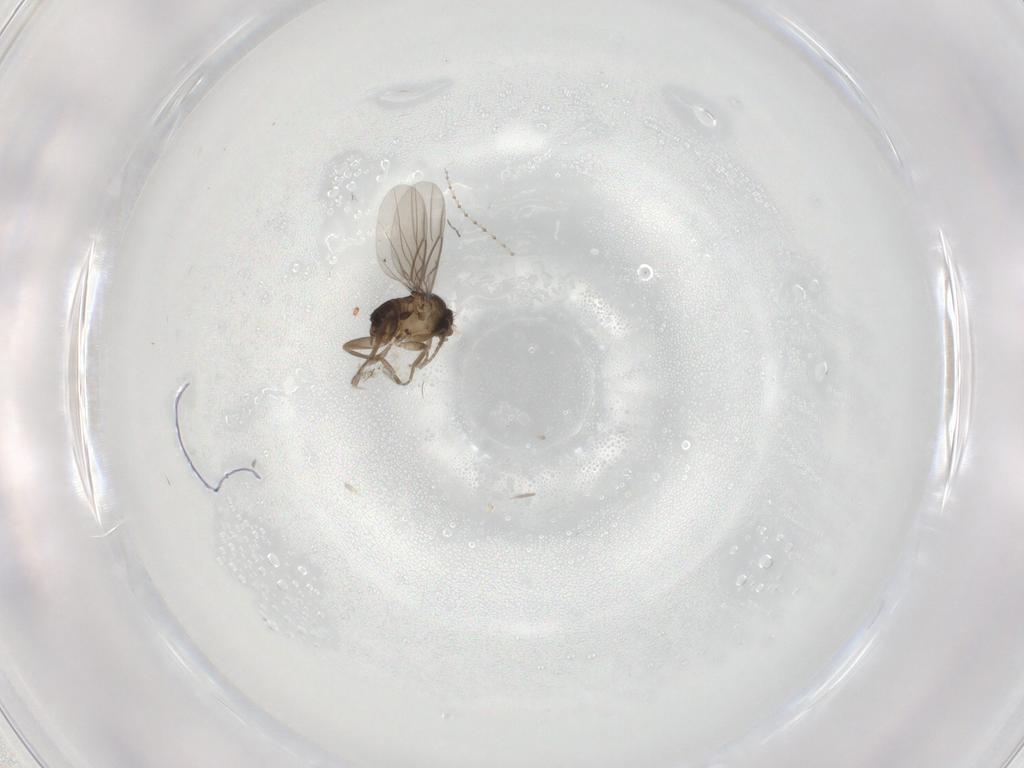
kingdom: Animalia
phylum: Arthropoda
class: Insecta
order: Diptera
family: Cecidomyiidae
